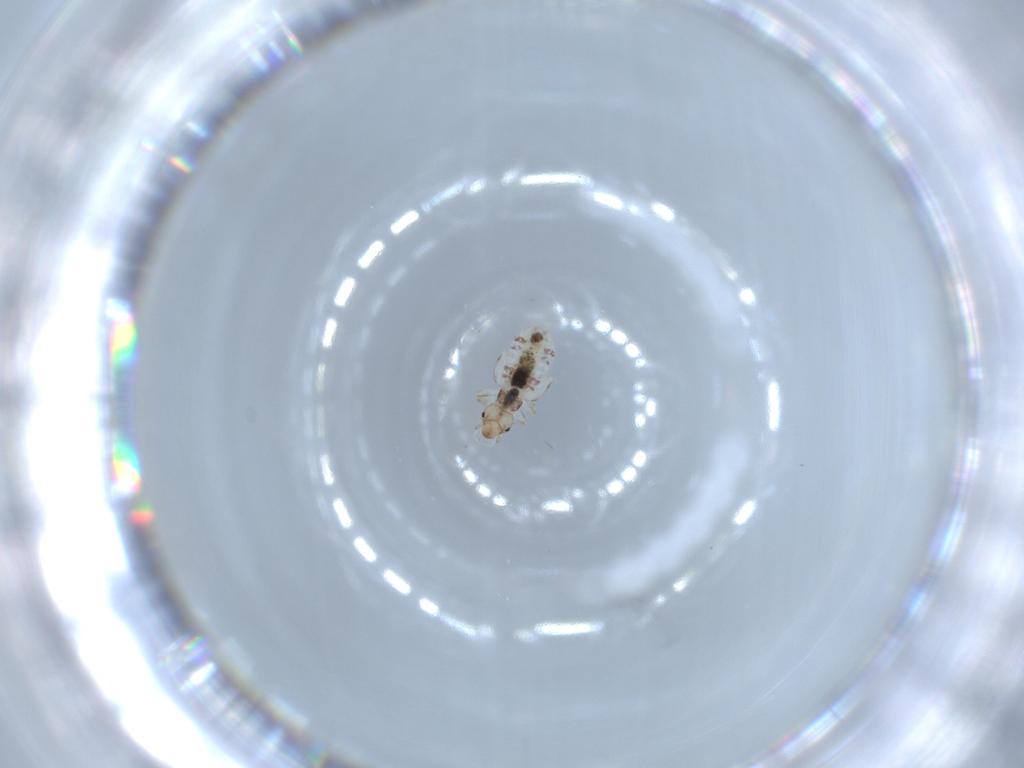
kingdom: Animalia
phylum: Arthropoda
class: Insecta
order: Psocodea
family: Liposcelididae
